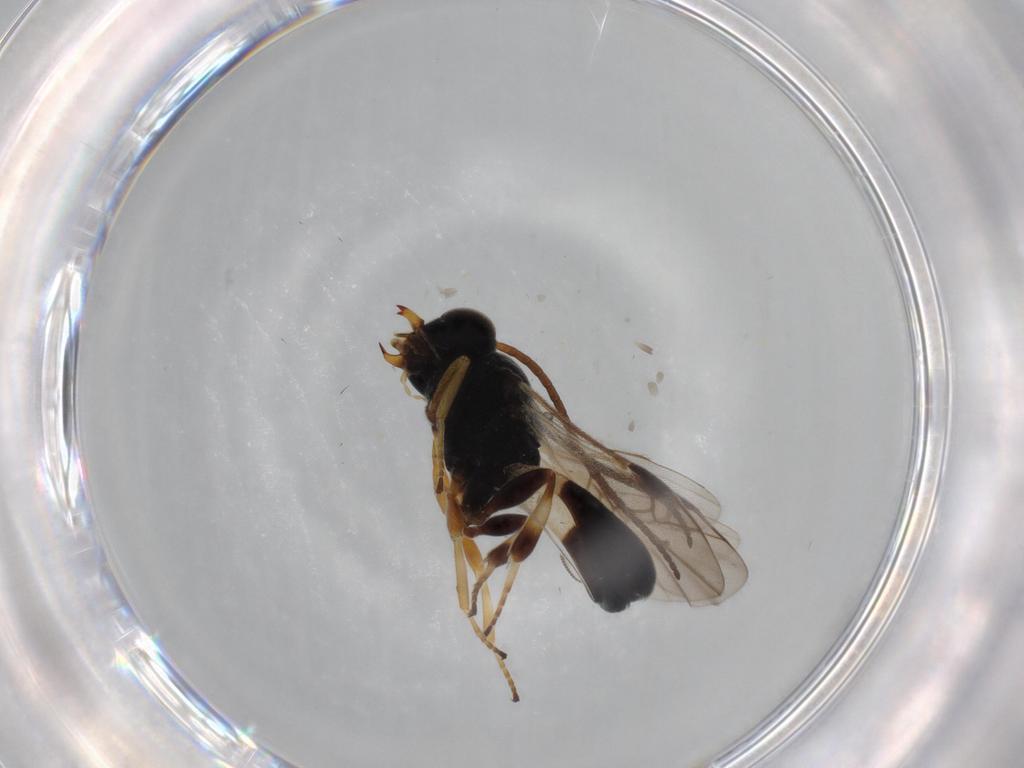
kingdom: Animalia
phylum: Arthropoda
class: Insecta
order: Hymenoptera
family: Braconidae
